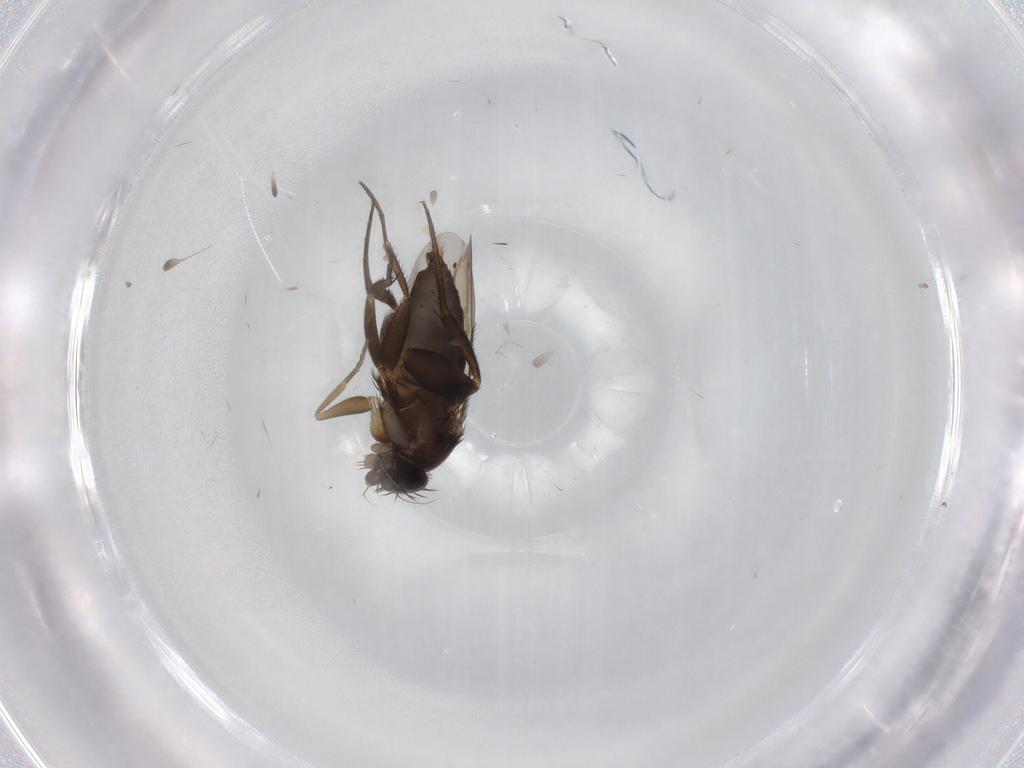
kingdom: Animalia
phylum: Arthropoda
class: Insecta
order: Diptera
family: Phoridae
